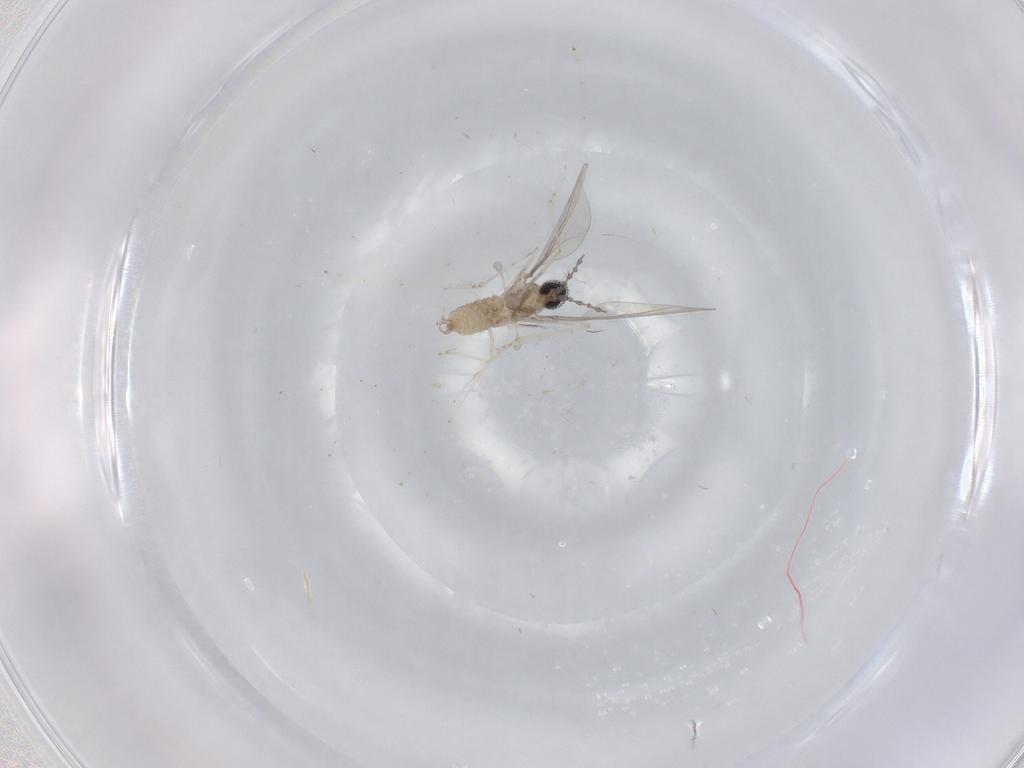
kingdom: Animalia
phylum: Arthropoda
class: Insecta
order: Diptera
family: Cecidomyiidae
